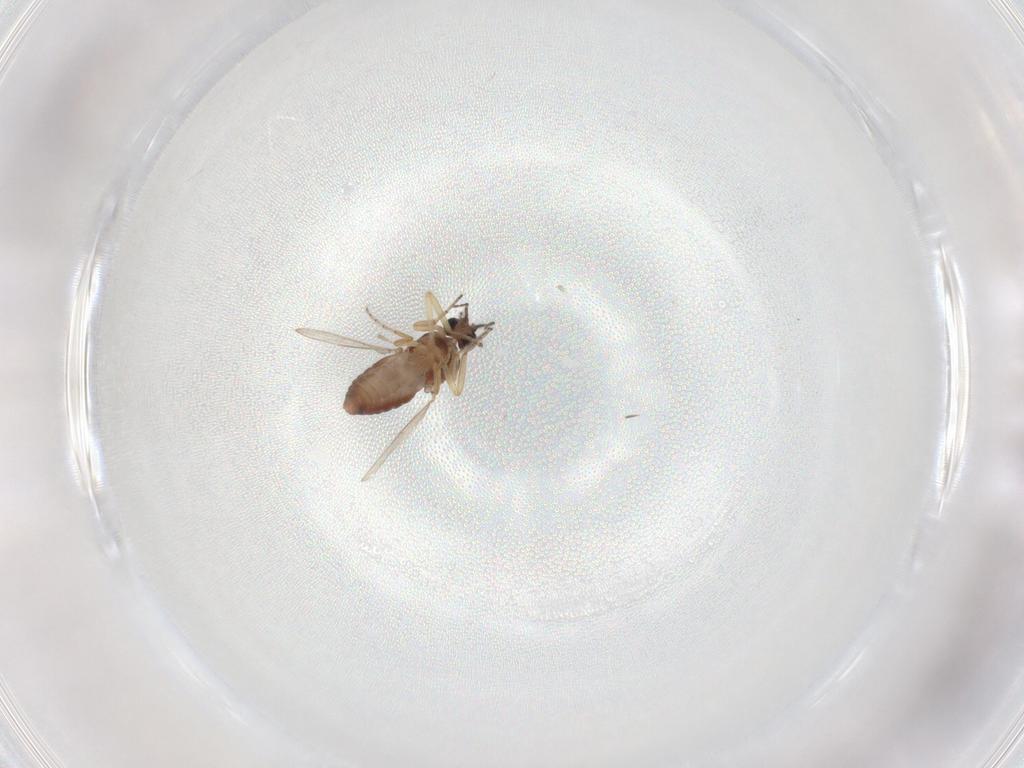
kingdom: Animalia
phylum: Arthropoda
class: Insecta
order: Diptera
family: Ceratopogonidae
